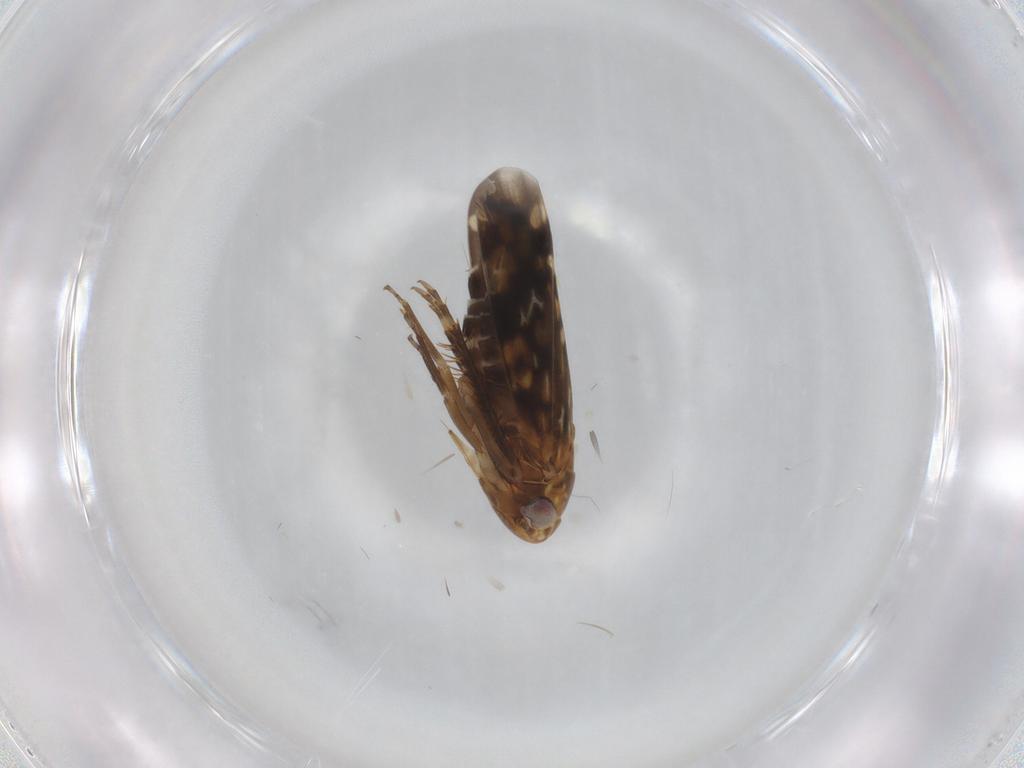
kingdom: Animalia
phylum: Arthropoda
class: Insecta
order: Hemiptera
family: Cicadellidae
